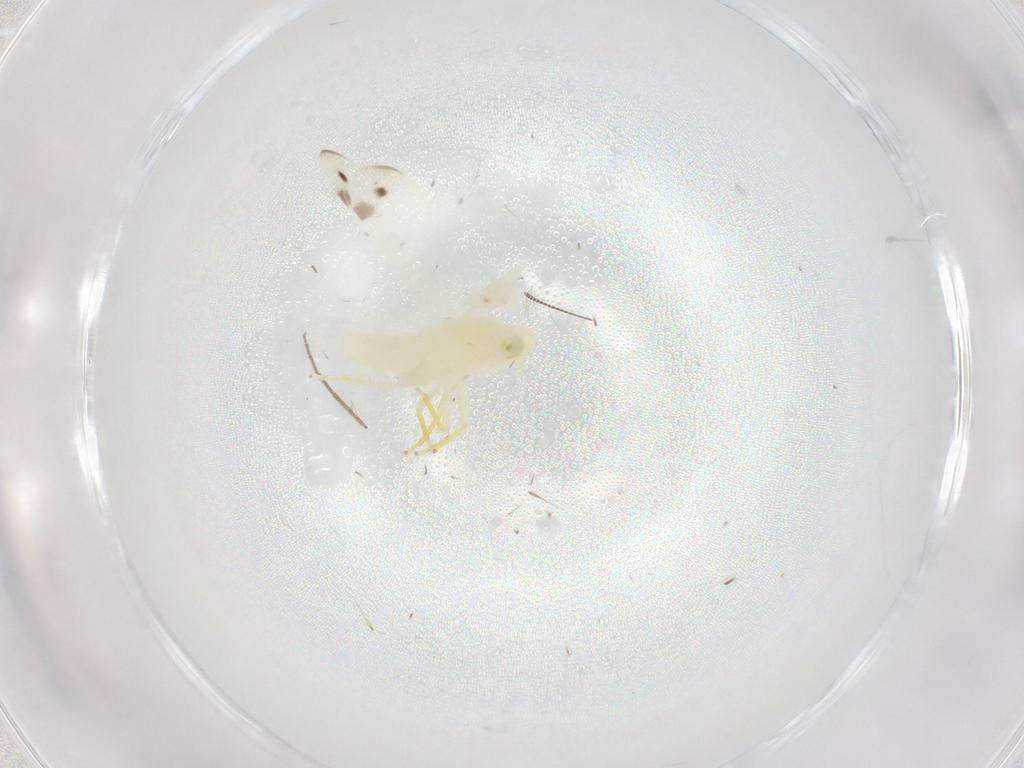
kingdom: Animalia
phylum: Arthropoda
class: Insecta
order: Hemiptera
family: Cicadellidae
